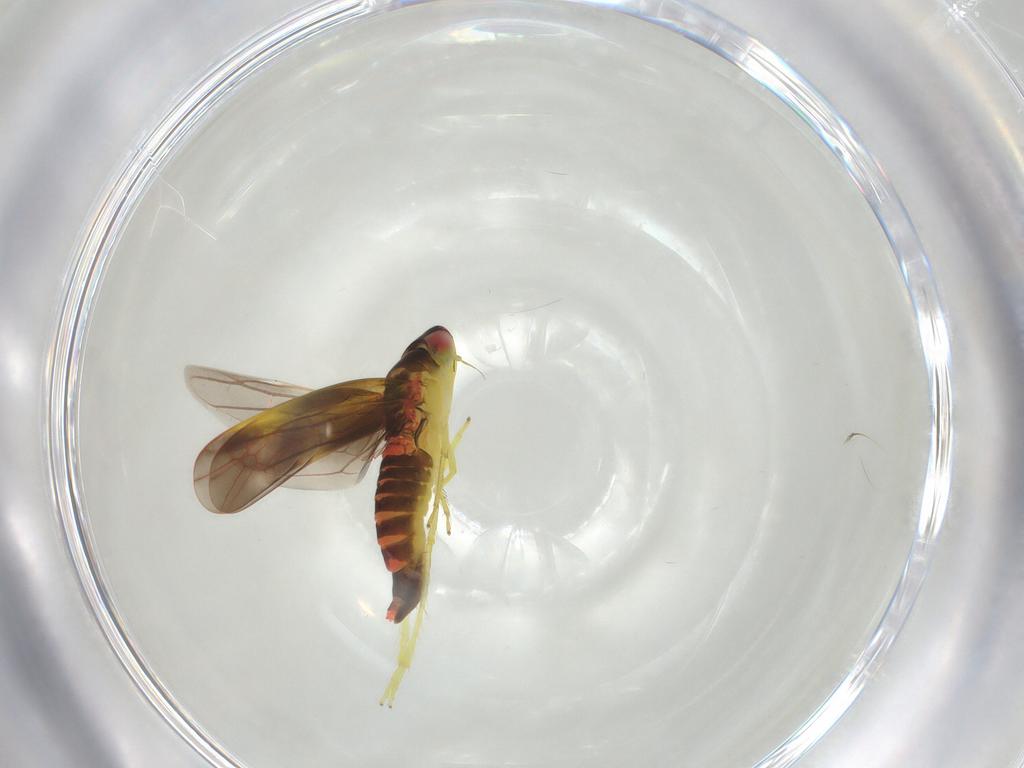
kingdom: Animalia
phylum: Arthropoda
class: Insecta
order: Hemiptera
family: Cicadellidae
